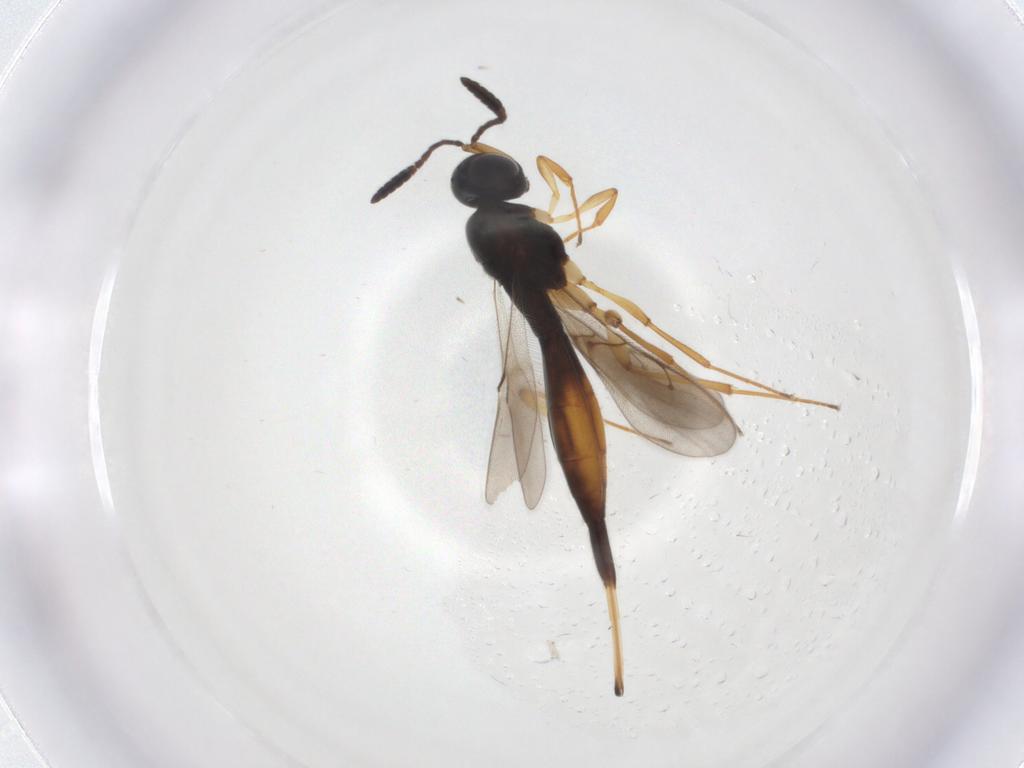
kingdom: Animalia
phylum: Arthropoda
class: Insecta
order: Hymenoptera
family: Scelionidae
